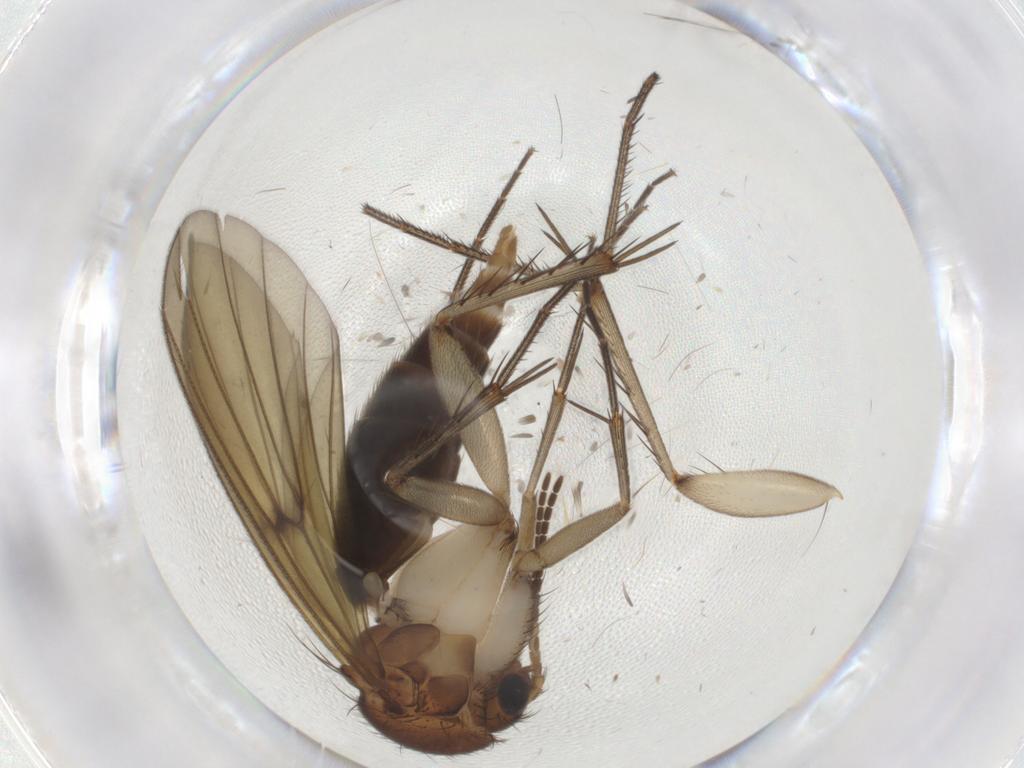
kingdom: Animalia
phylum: Arthropoda
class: Insecta
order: Diptera
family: Mycetophilidae
